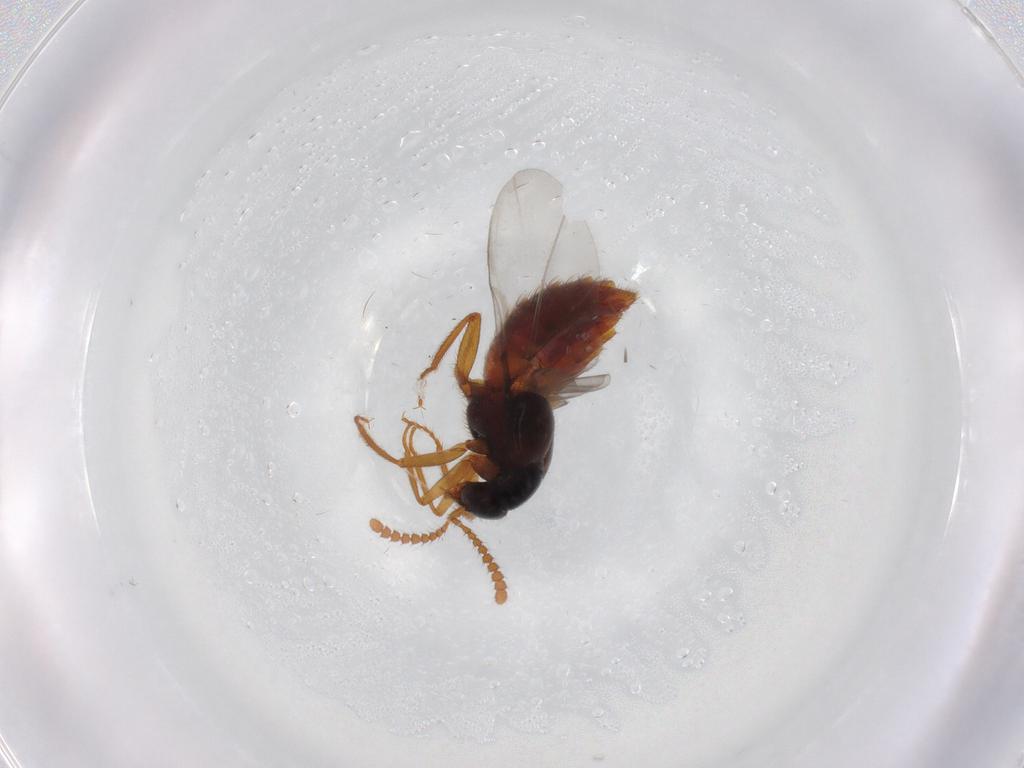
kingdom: Animalia
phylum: Arthropoda
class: Insecta
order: Coleoptera
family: Staphylinidae
